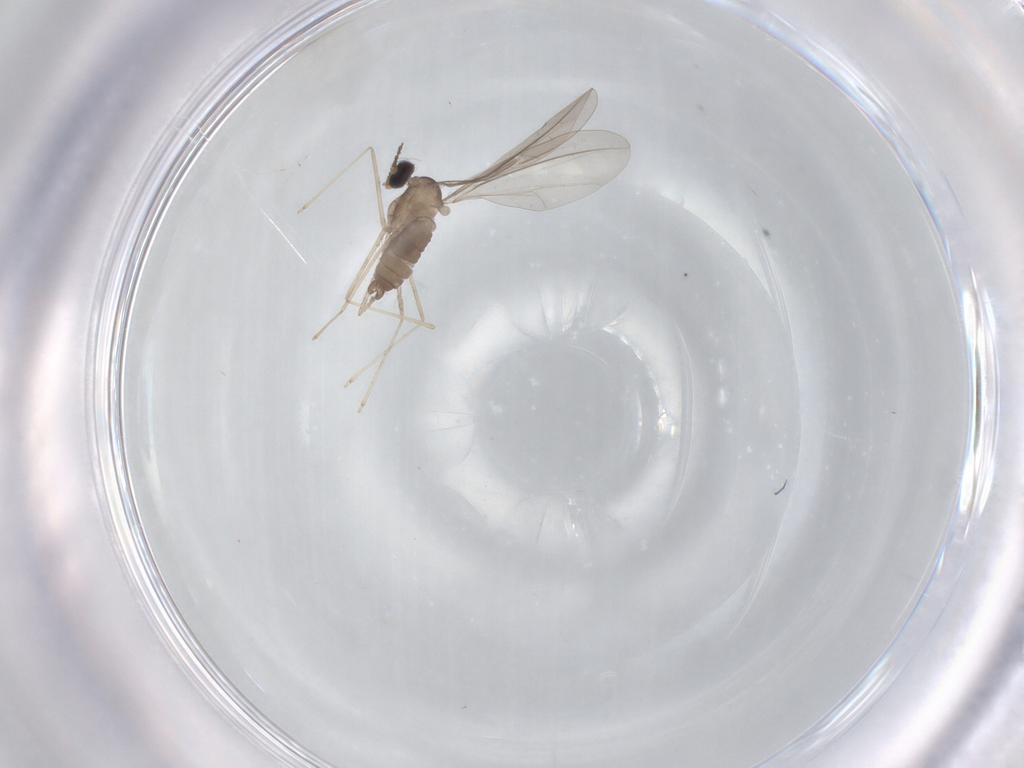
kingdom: Animalia
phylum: Arthropoda
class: Insecta
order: Diptera
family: Cecidomyiidae
